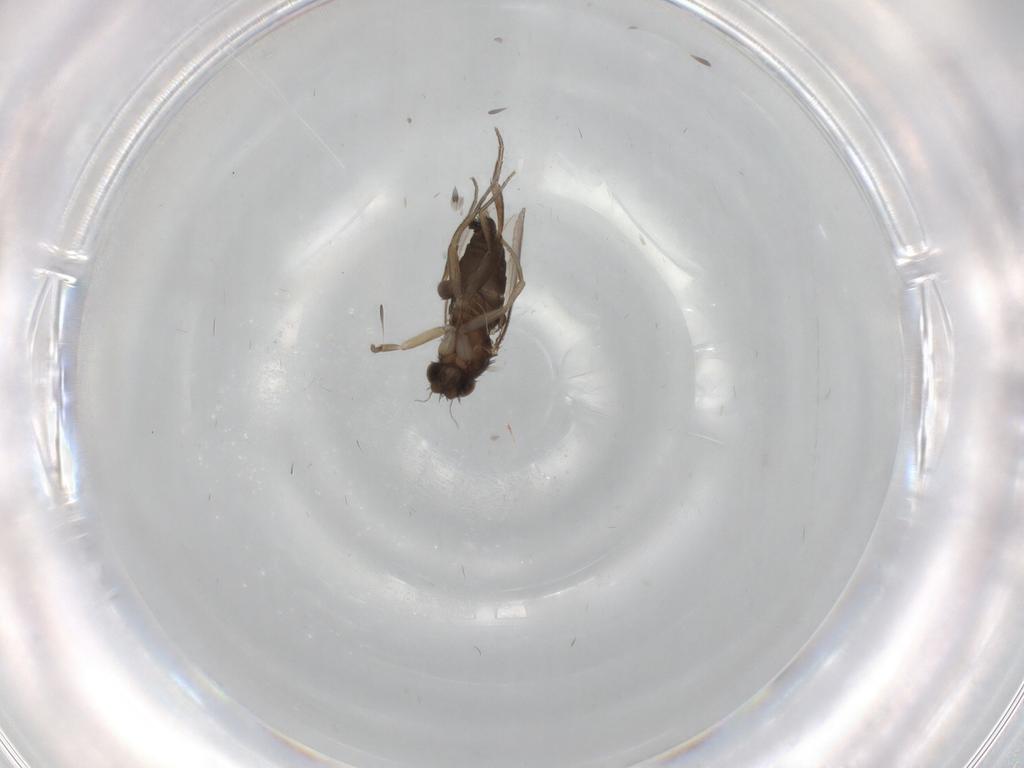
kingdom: Animalia
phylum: Arthropoda
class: Insecta
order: Diptera
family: Phoridae
